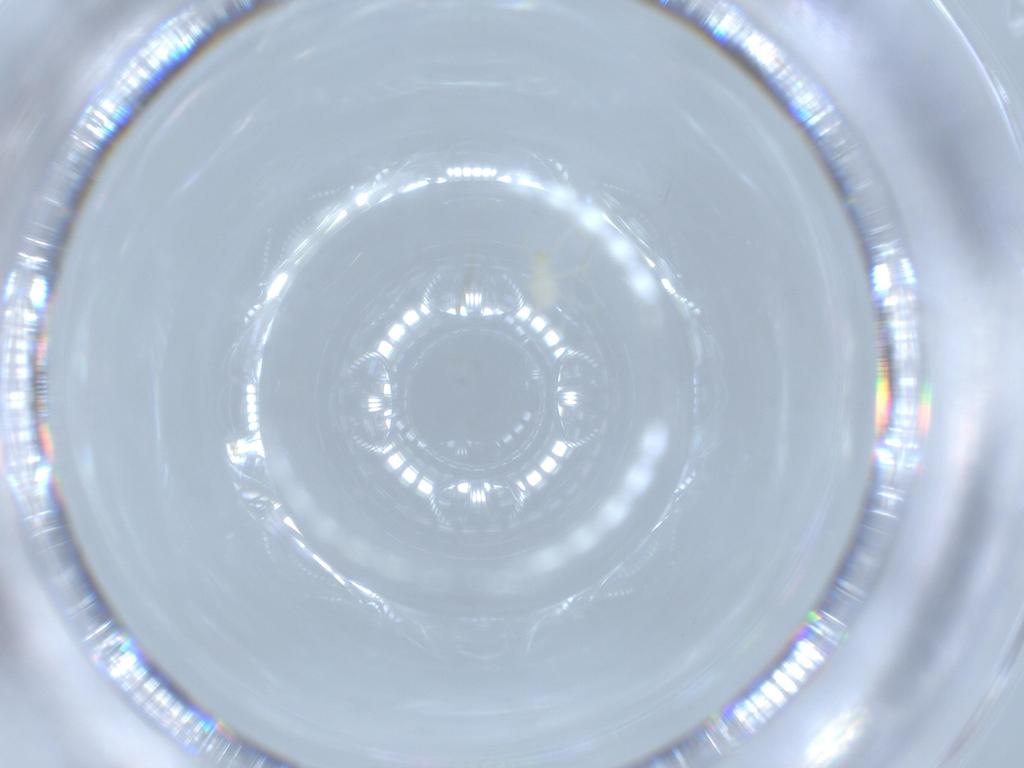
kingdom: Animalia
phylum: Arthropoda
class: Arachnida
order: Trombidiformes
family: Erythraeidae
